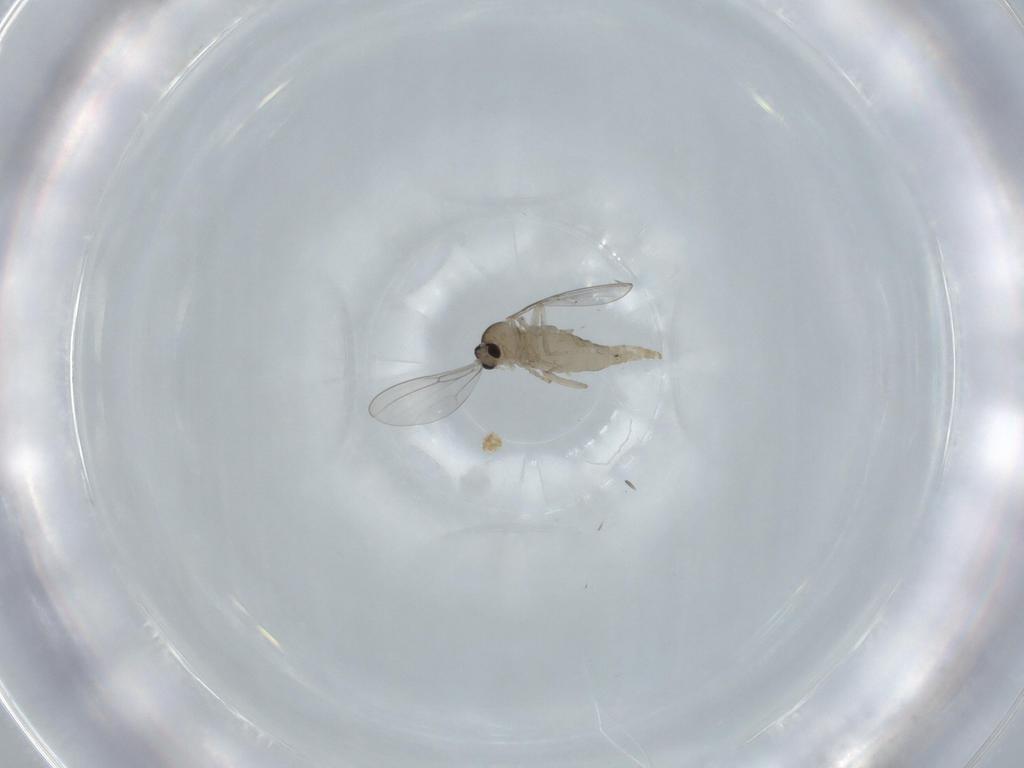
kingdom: Animalia
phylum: Arthropoda
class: Insecta
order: Diptera
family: Cecidomyiidae
